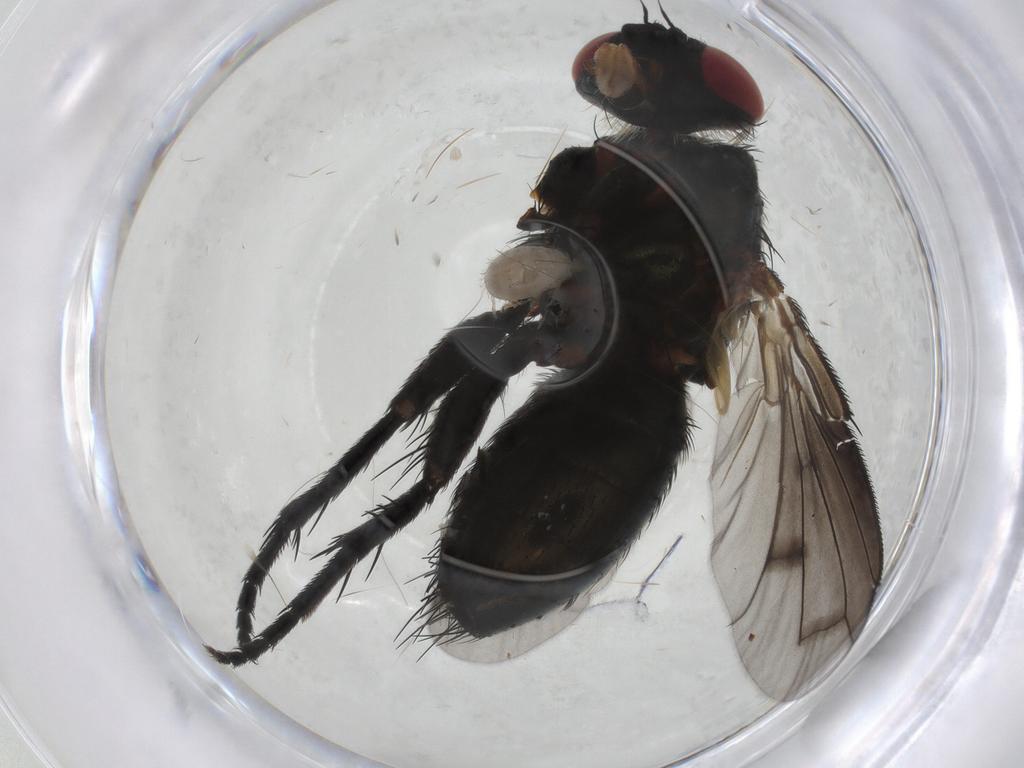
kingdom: Animalia
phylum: Arthropoda
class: Insecta
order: Diptera
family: Tachinidae
